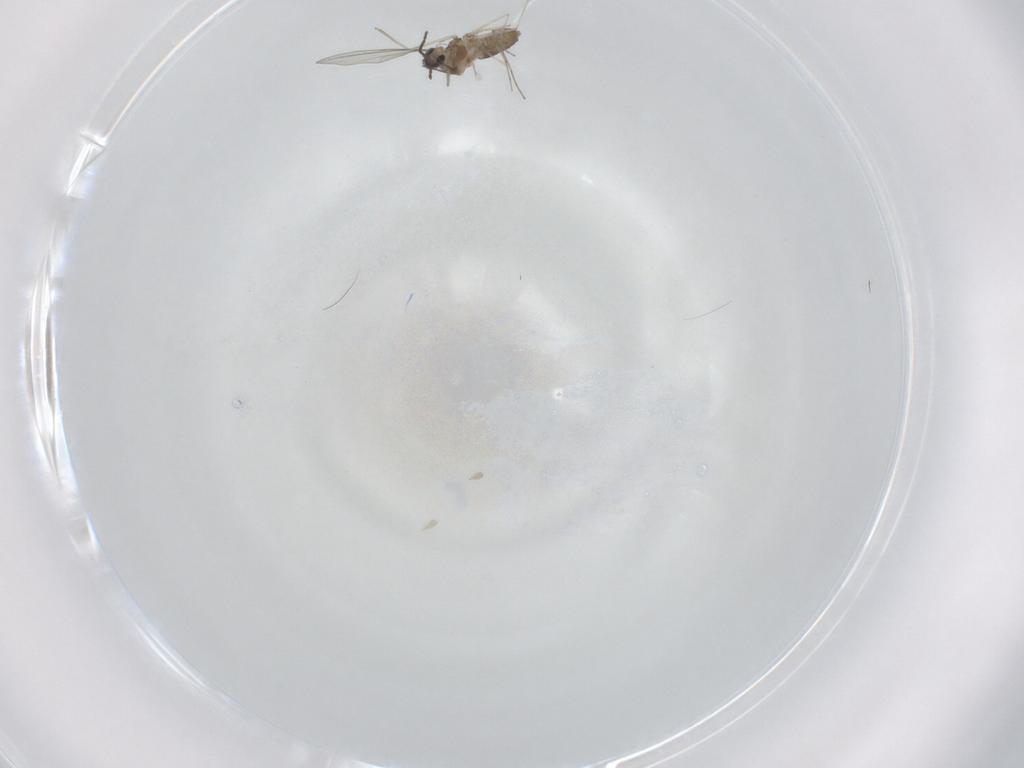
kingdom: Animalia
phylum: Arthropoda
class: Insecta
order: Diptera
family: Cecidomyiidae
